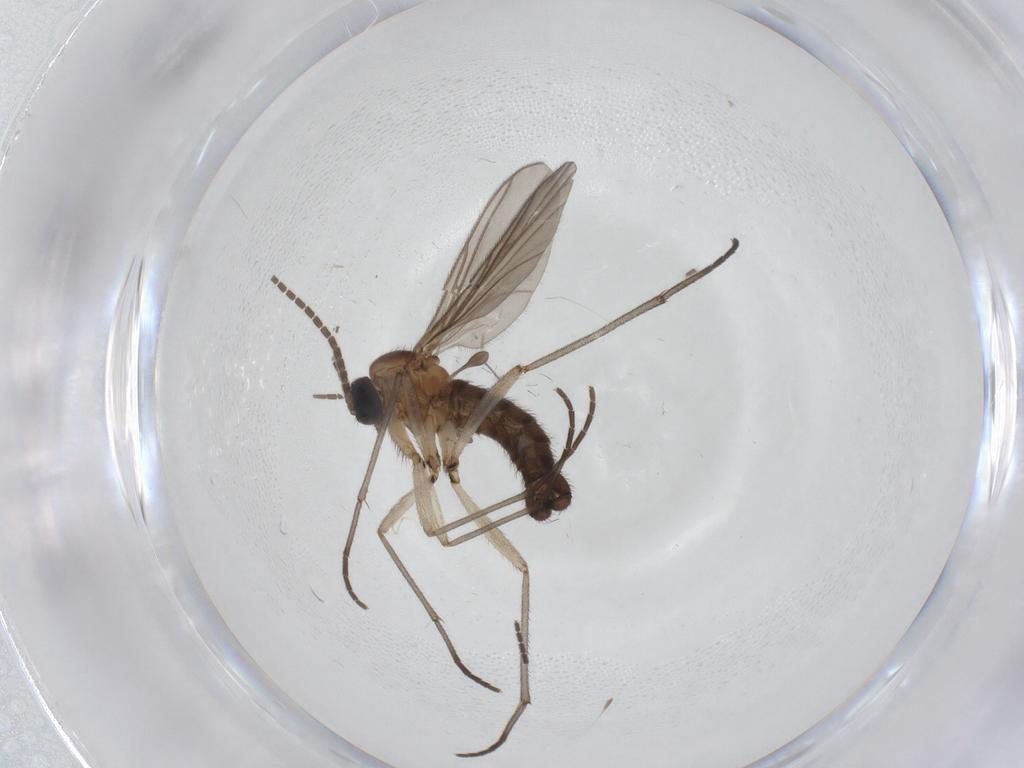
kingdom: Animalia
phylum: Arthropoda
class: Insecta
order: Diptera
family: Sciaridae
